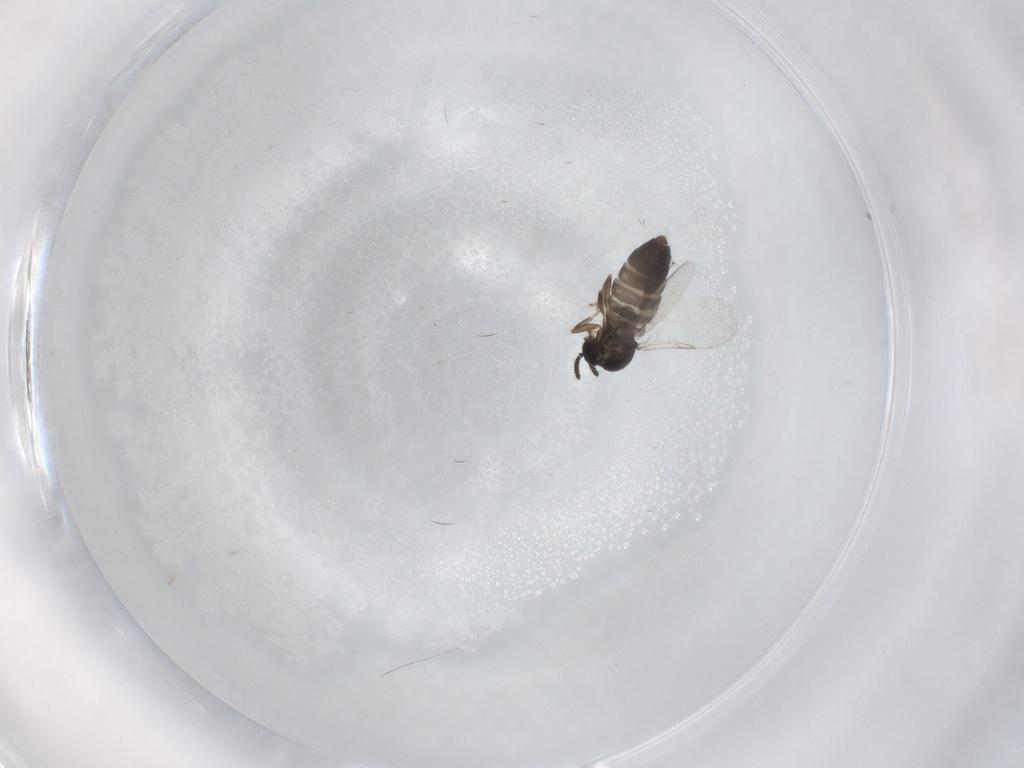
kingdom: Animalia
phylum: Arthropoda
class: Insecta
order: Diptera
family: Scatopsidae
